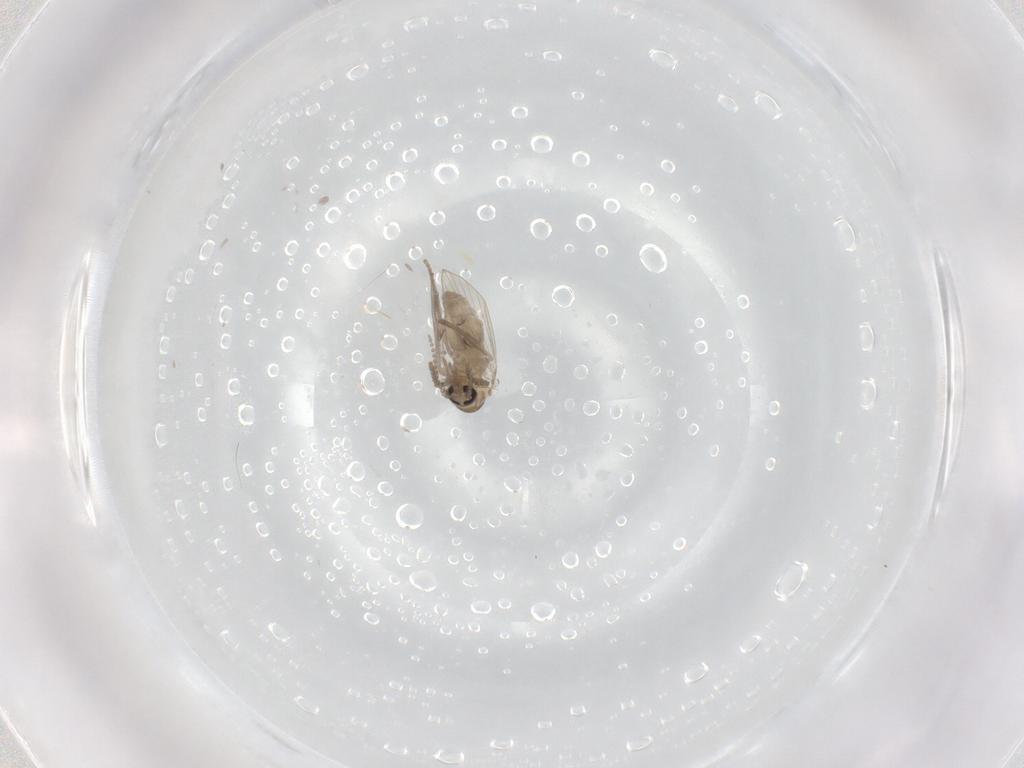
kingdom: Animalia
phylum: Arthropoda
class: Insecta
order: Diptera
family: Psychodidae
